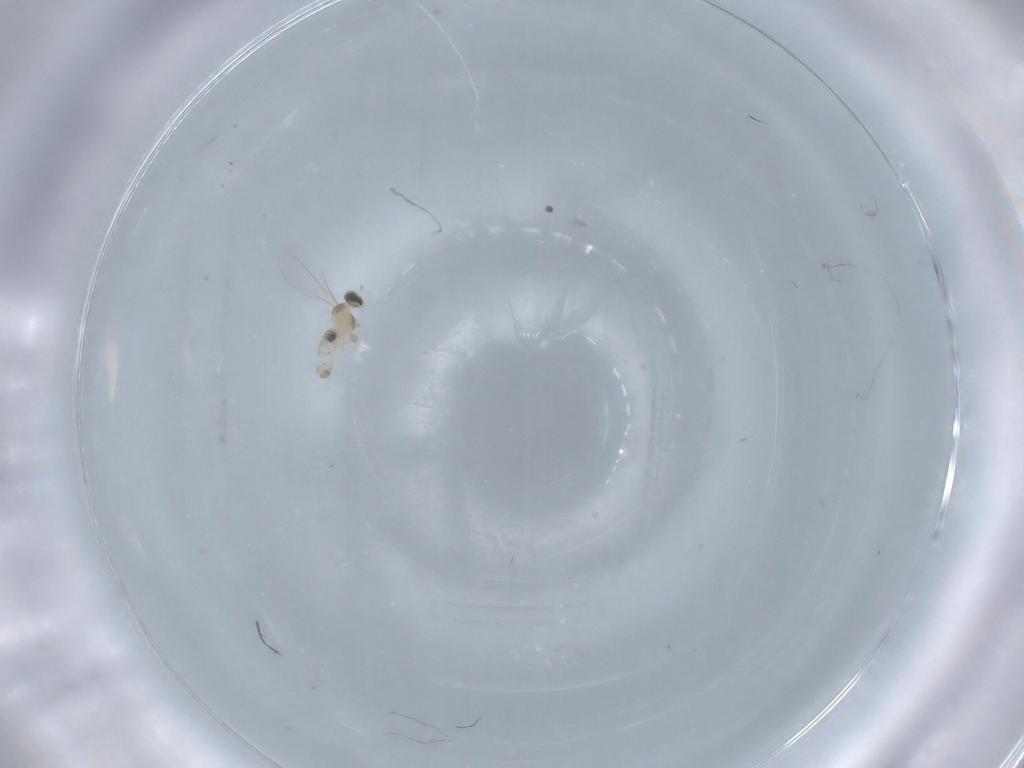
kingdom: Animalia
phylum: Arthropoda
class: Insecta
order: Diptera
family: Cecidomyiidae
